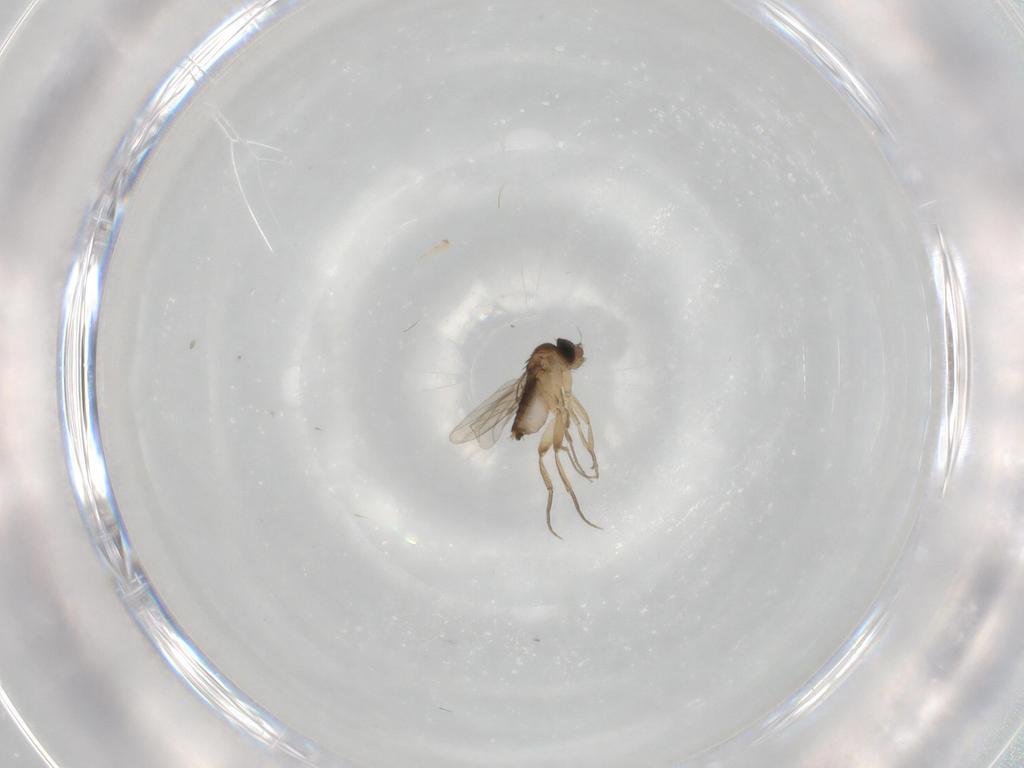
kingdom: Animalia
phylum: Arthropoda
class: Insecta
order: Diptera
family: Phoridae
